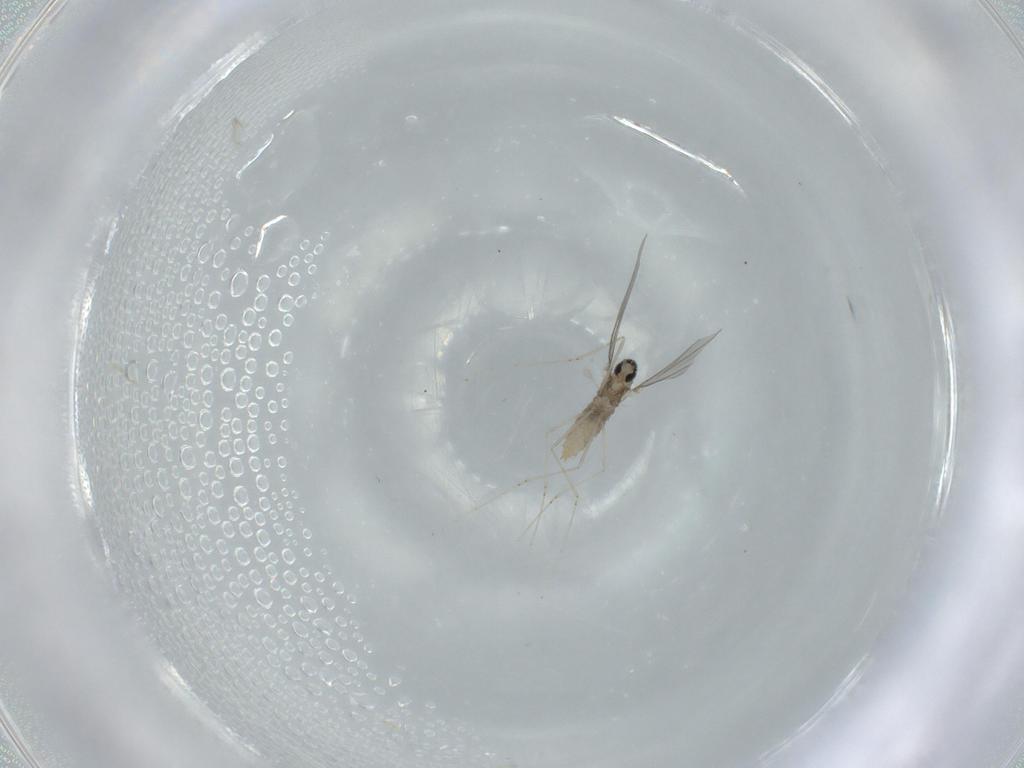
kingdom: Animalia
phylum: Arthropoda
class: Insecta
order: Diptera
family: Cecidomyiidae
